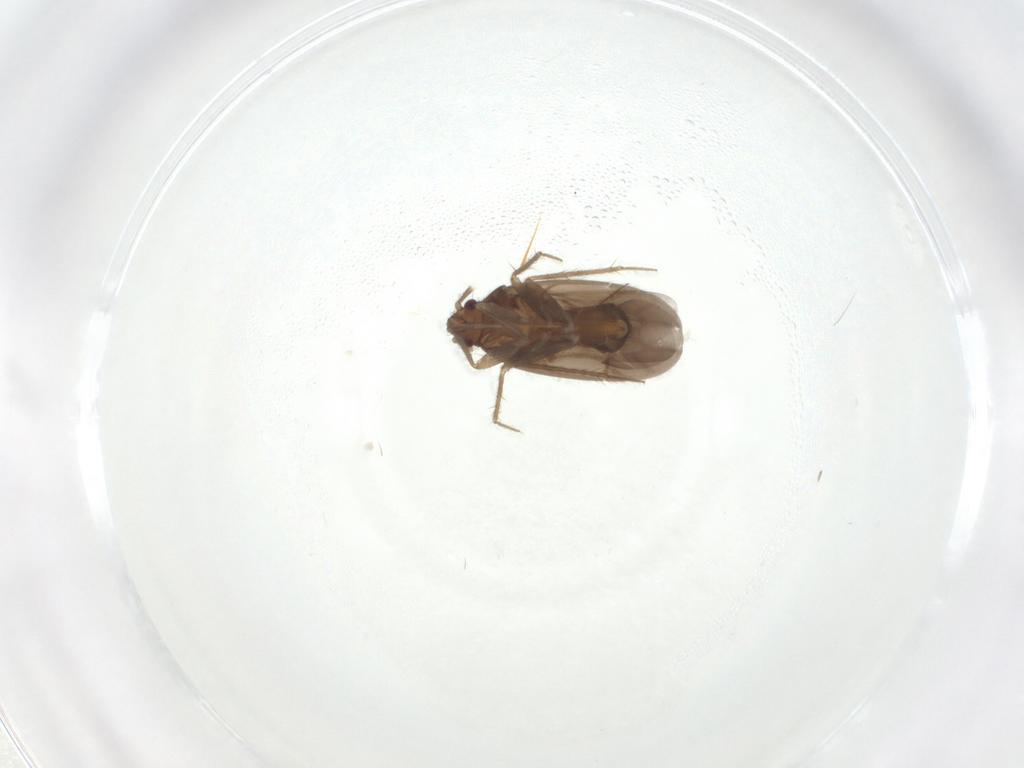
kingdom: Animalia
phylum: Arthropoda
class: Insecta
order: Hemiptera
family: Ceratocombidae
